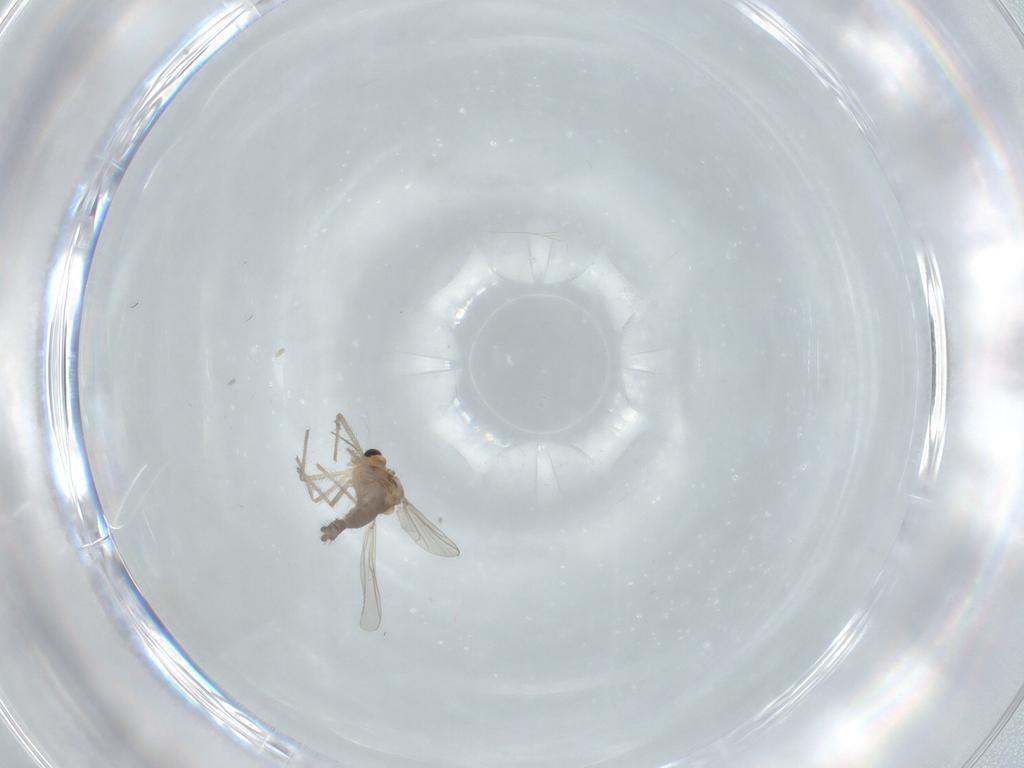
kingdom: Animalia
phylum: Arthropoda
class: Insecta
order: Diptera
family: Chironomidae
